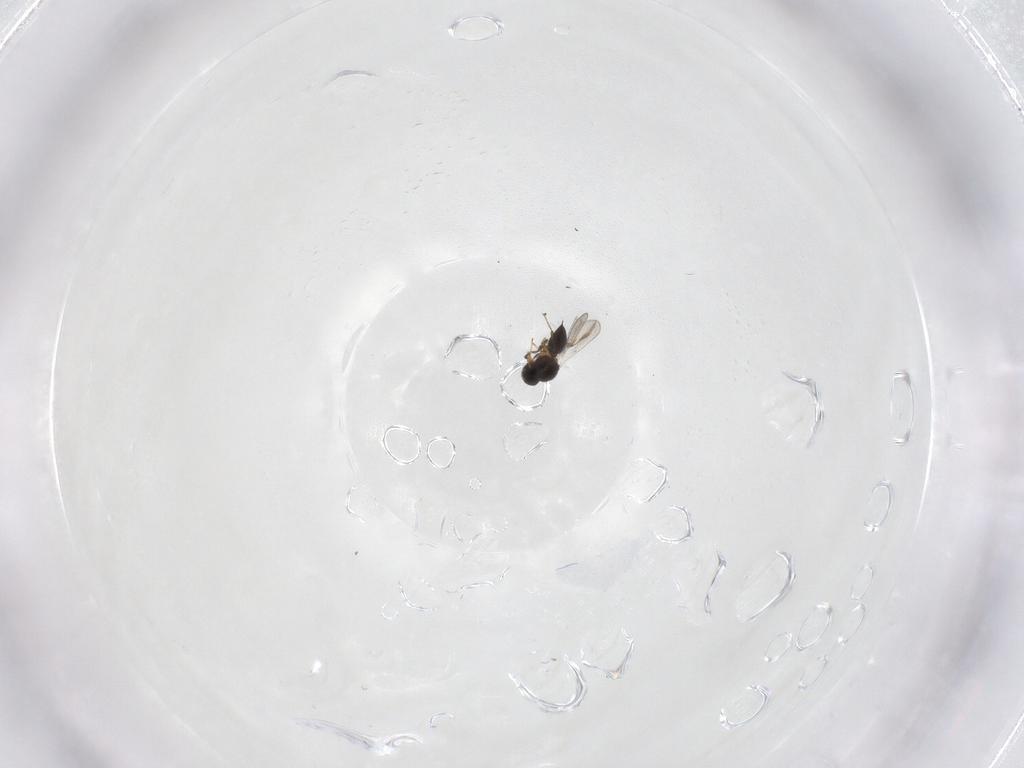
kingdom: Animalia
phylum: Arthropoda
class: Insecta
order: Hymenoptera
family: Platygastridae
